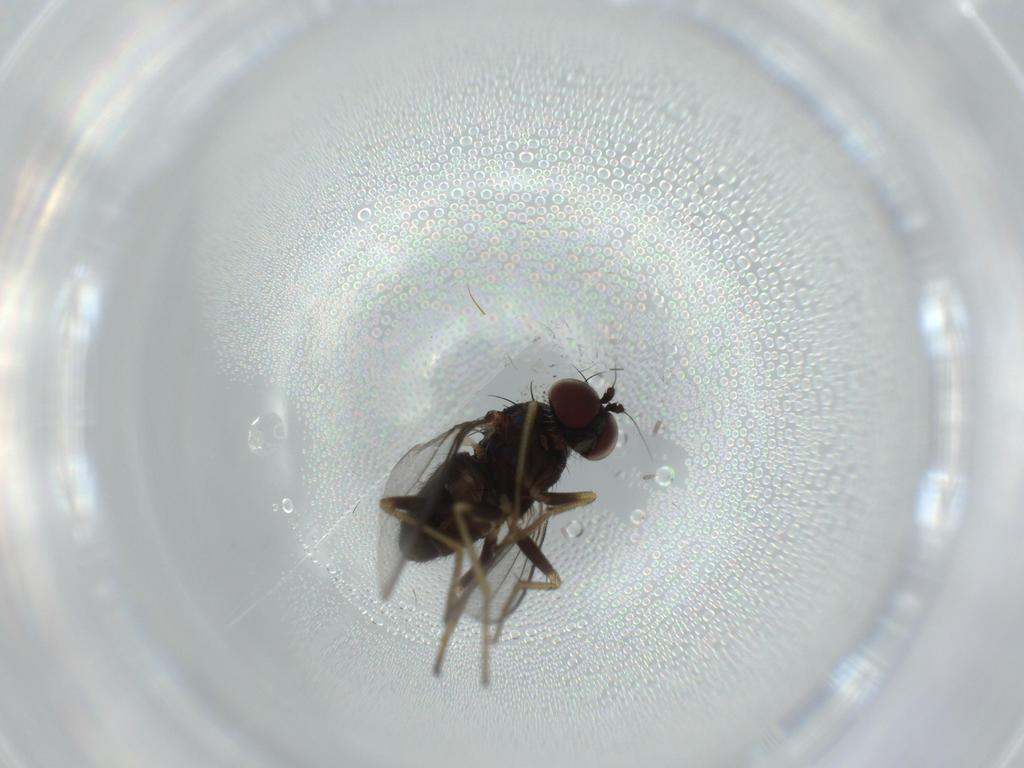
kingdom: Animalia
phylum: Arthropoda
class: Insecta
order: Diptera
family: Dolichopodidae
